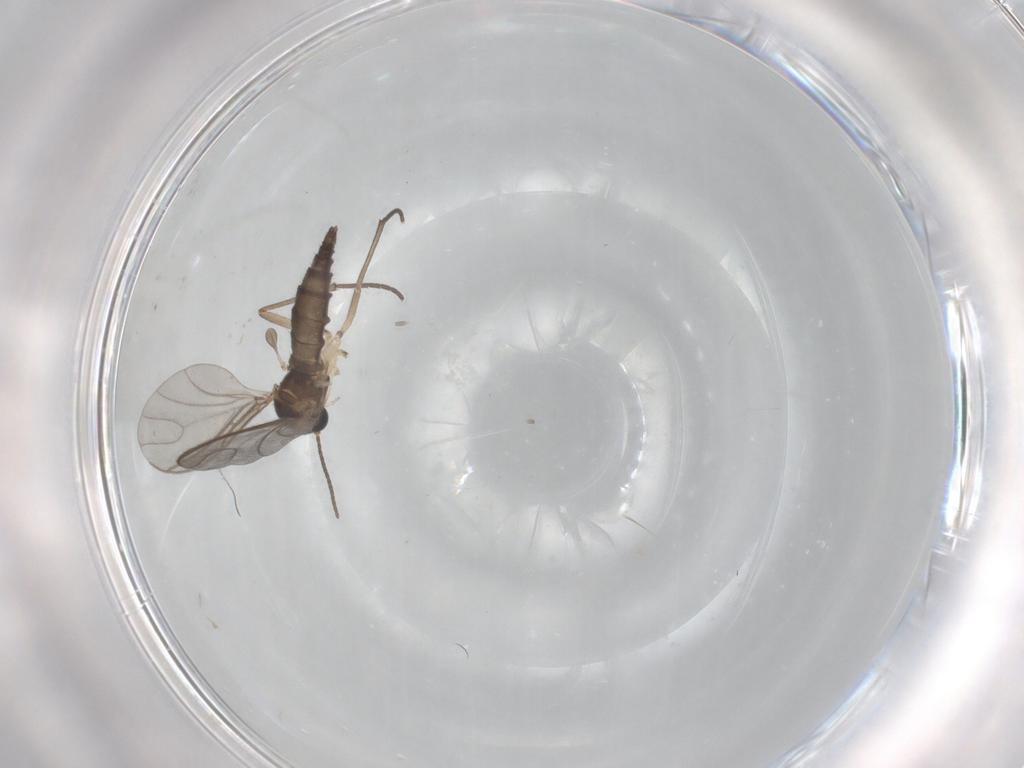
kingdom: Animalia
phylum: Arthropoda
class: Insecta
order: Diptera
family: Cecidomyiidae
